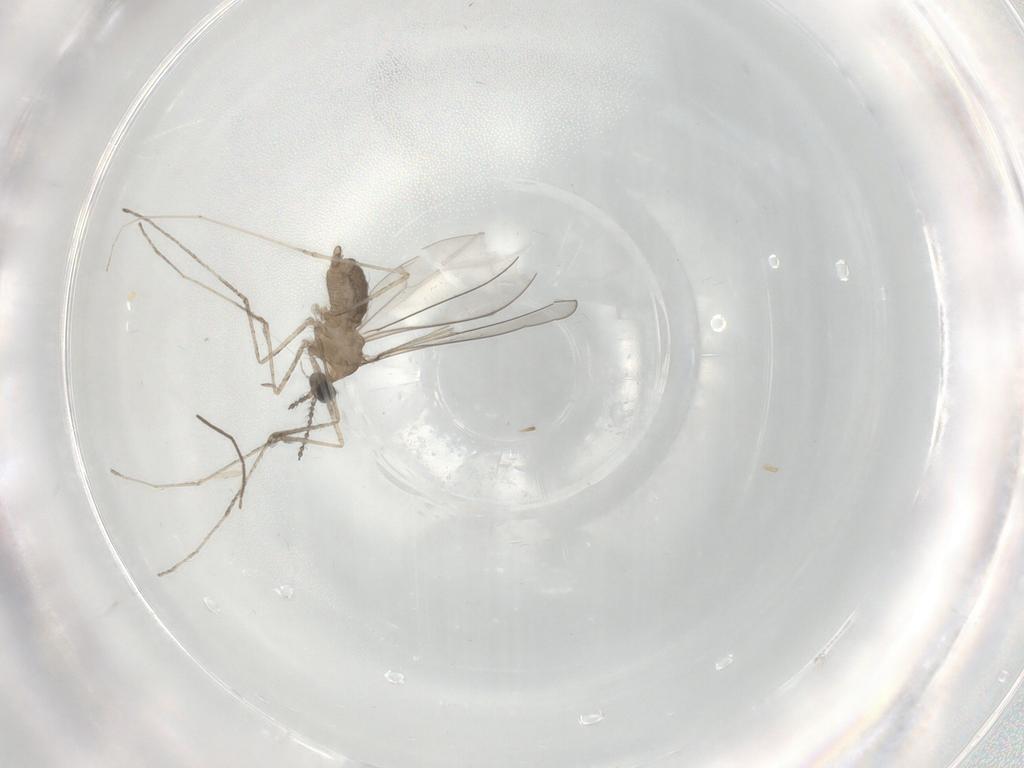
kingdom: Animalia
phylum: Arthropoda
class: Insecta
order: Diptera
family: Cecidomyiidae
